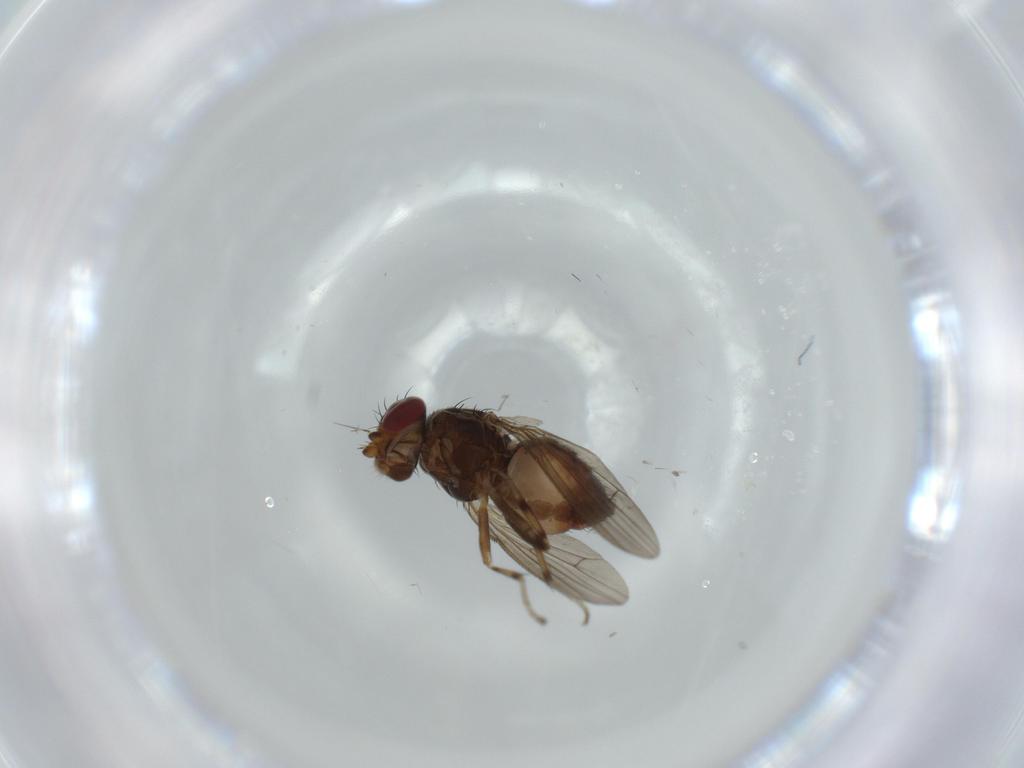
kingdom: Animalia
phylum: Arthropoda
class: Insecta
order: Diptera
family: Heleomyzidae
